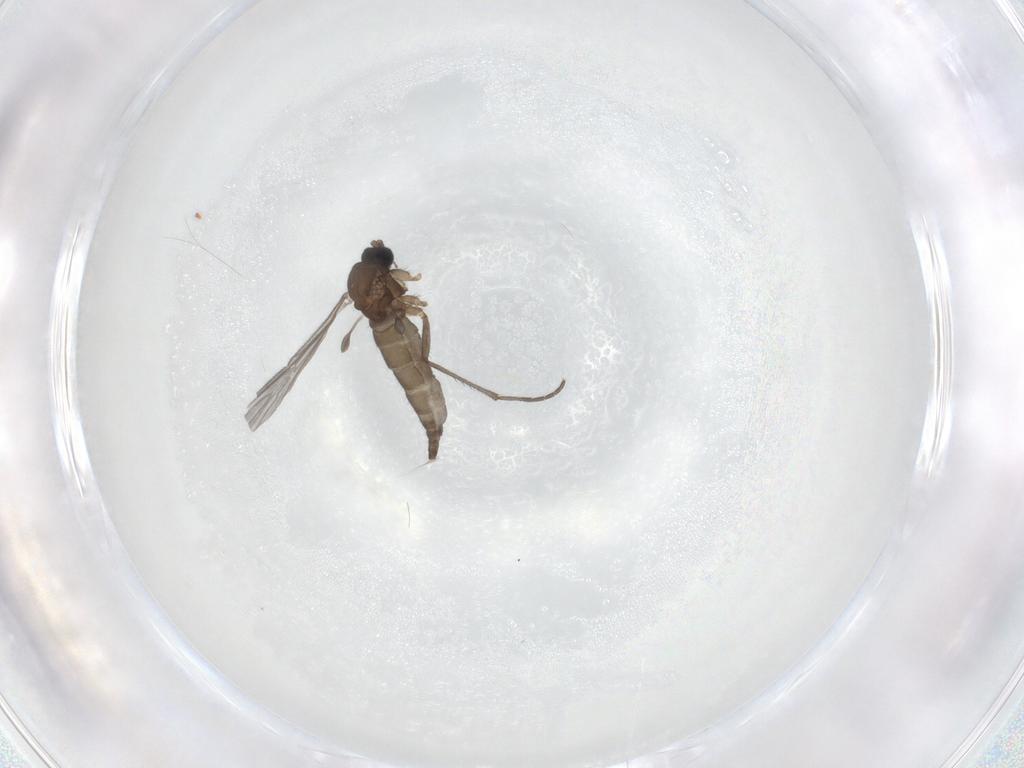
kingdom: Animalia
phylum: Arthropoda
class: Insecta
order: Diptera
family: Sciaridae
